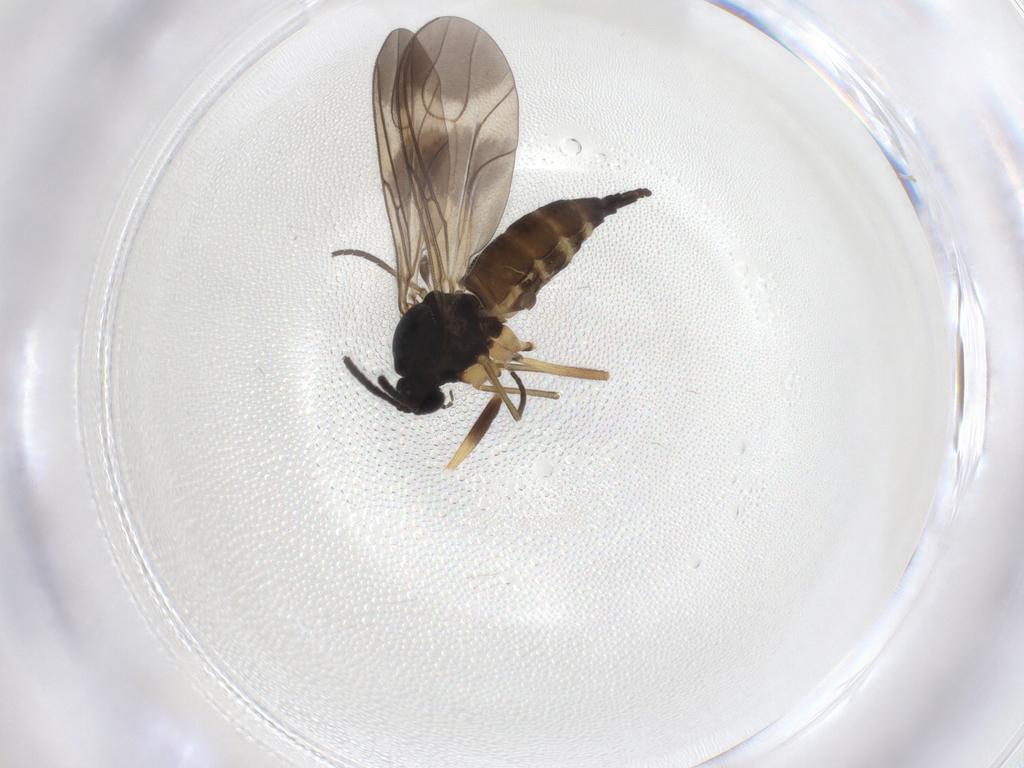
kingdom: Animalia
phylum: Arthropoda
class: Insecta
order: Diptera
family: Sciaridae
